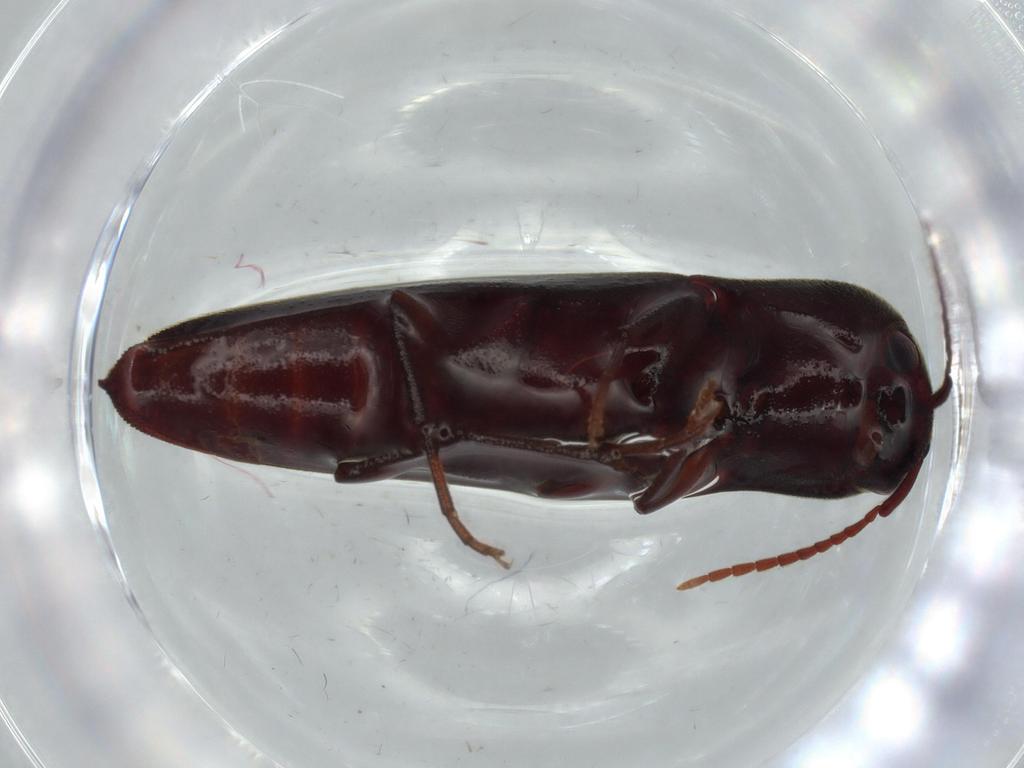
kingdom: Animalia
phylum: Arthropoda
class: Insecta
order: Coleoptera
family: Eucnemidae
